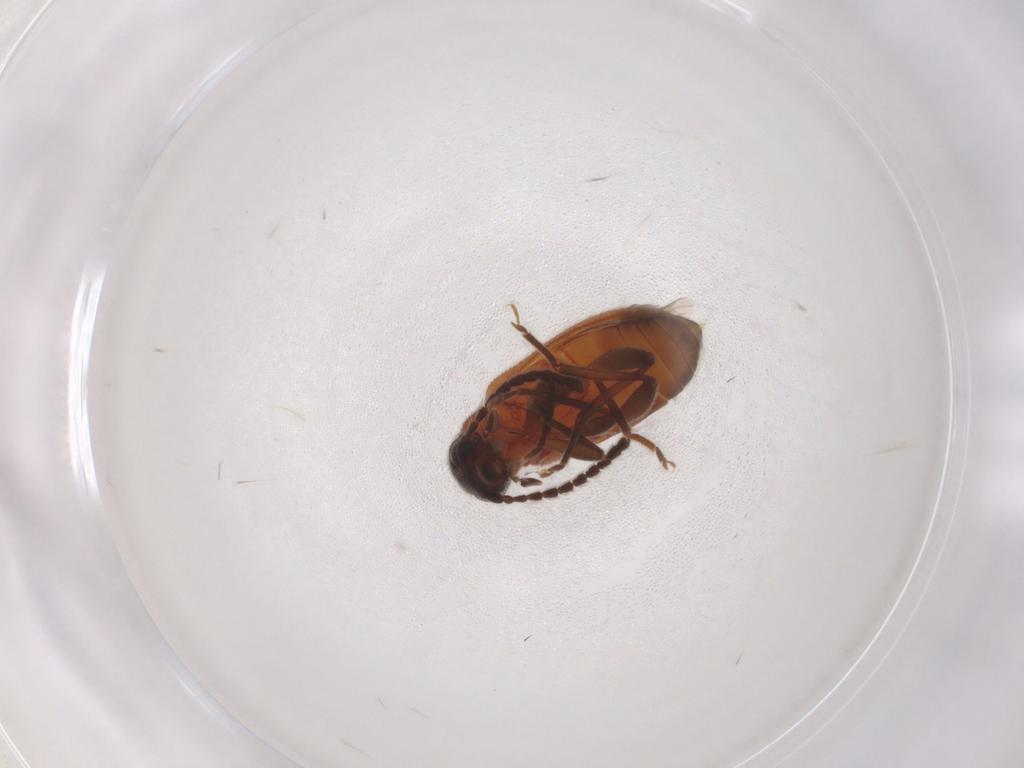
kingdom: Animalia
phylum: Arthropoda
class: Insecta
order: Coleoptera
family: Aderidae
